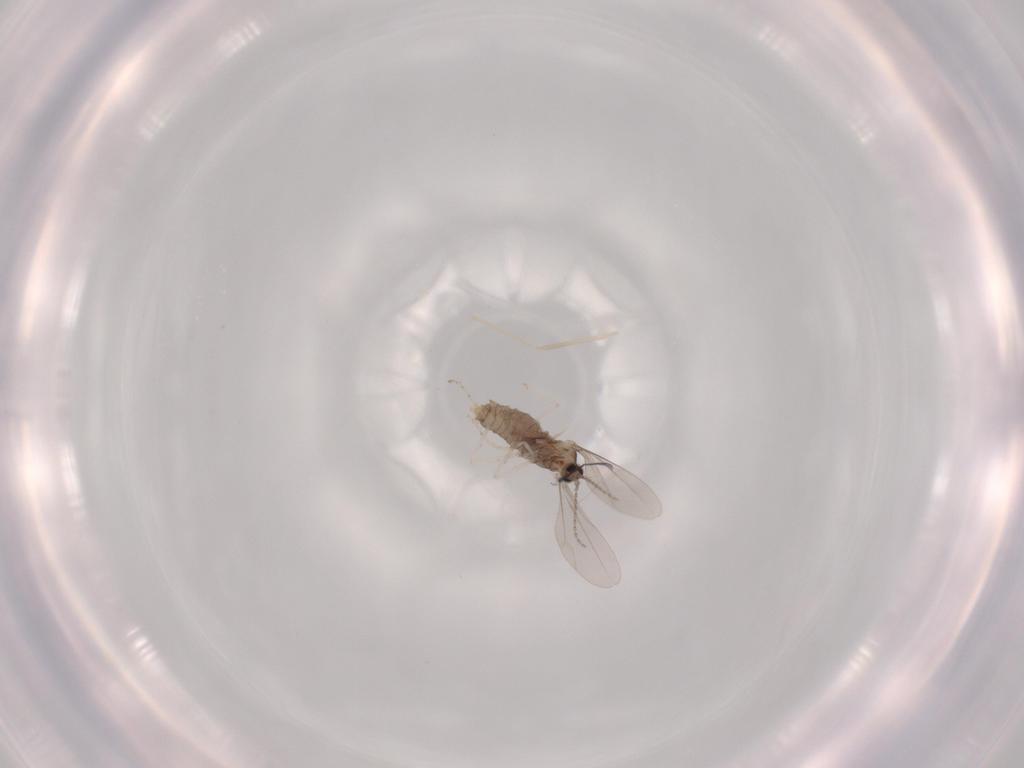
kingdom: Animalia
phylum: Arthropoda
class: Insecta
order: Diptera
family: Cecidomyiidae
